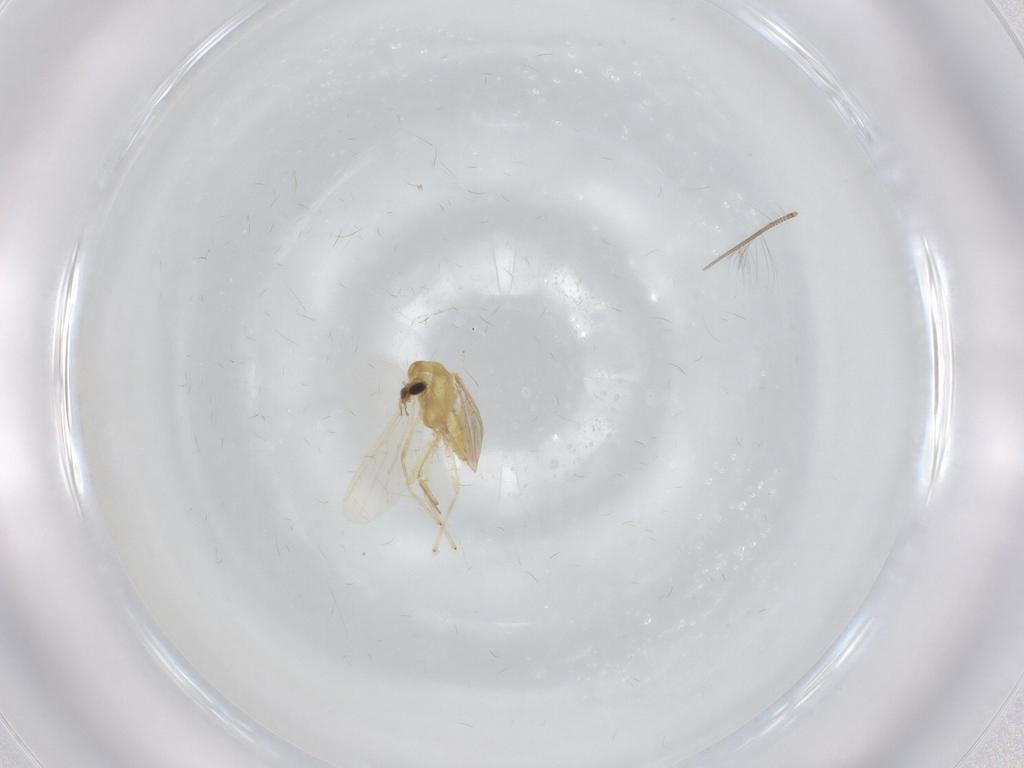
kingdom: Animalia
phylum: Arthropoda
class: Insecta
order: Diptera
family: Chironomidae
